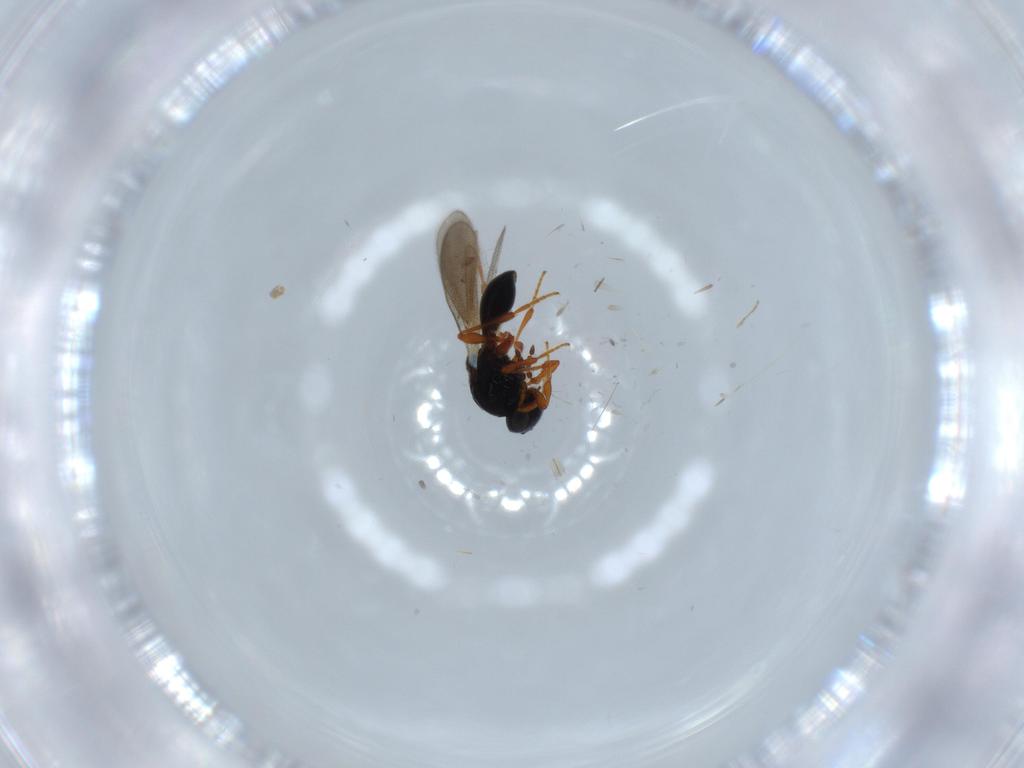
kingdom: Animalia
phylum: Arthropoda
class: Insecta
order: Hymenoptera
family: Platygastridae
